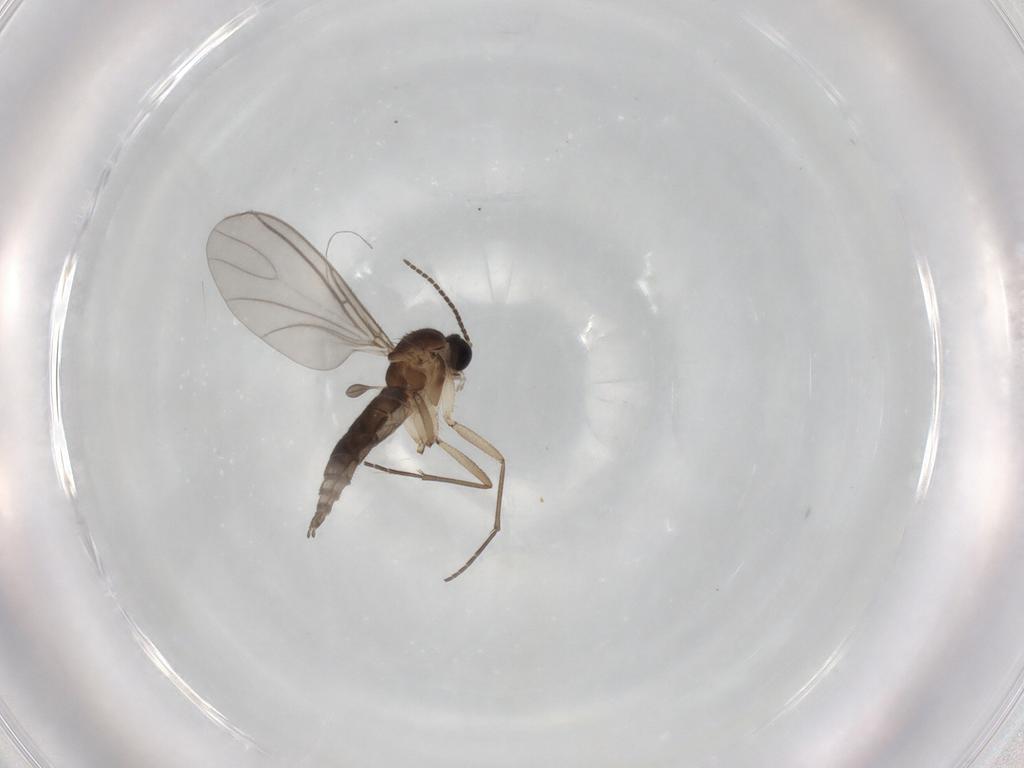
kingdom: Animalia
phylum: Arthropoda
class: Insecta
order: Diptera
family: Sciaridae
